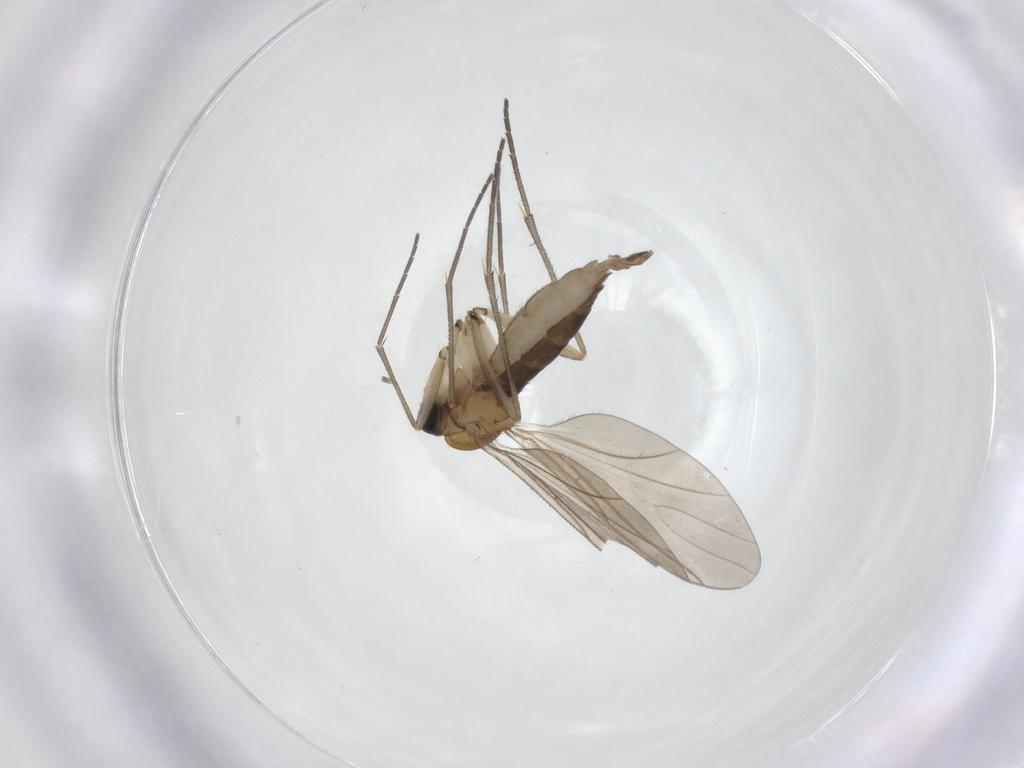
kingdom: Animalia
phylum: Arthropoda
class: Insecta
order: Diptera
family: Sciaridae
